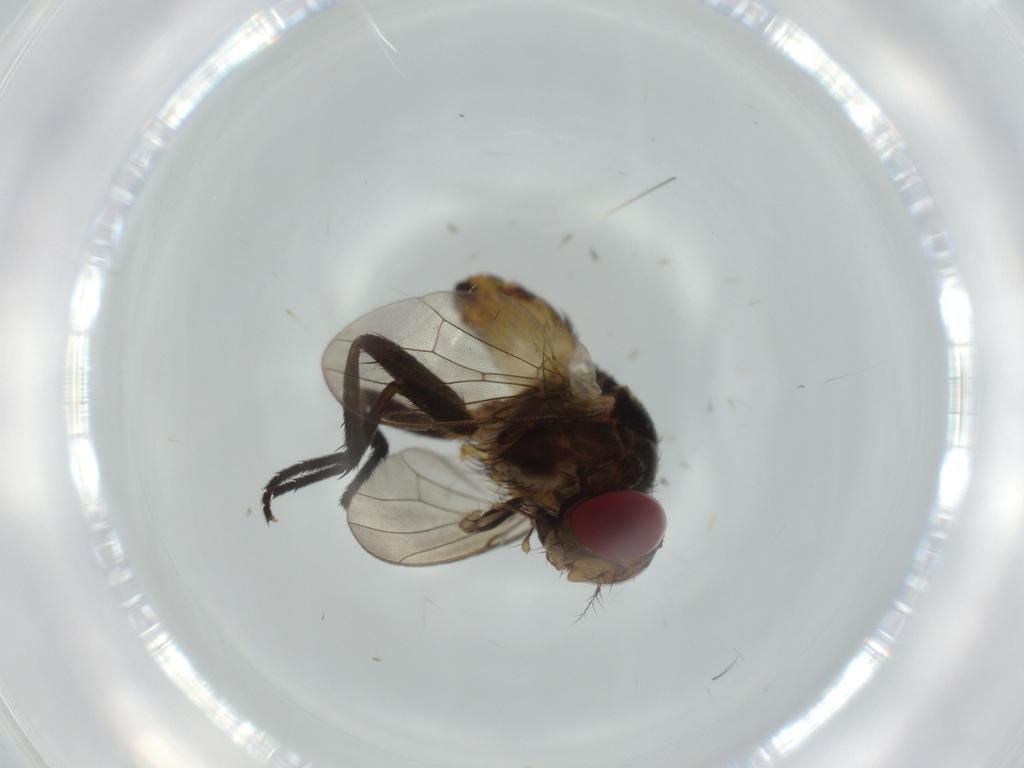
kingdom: Animalia
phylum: Arthropoda
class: Insecta
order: Diptera
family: Anthomyiidae
